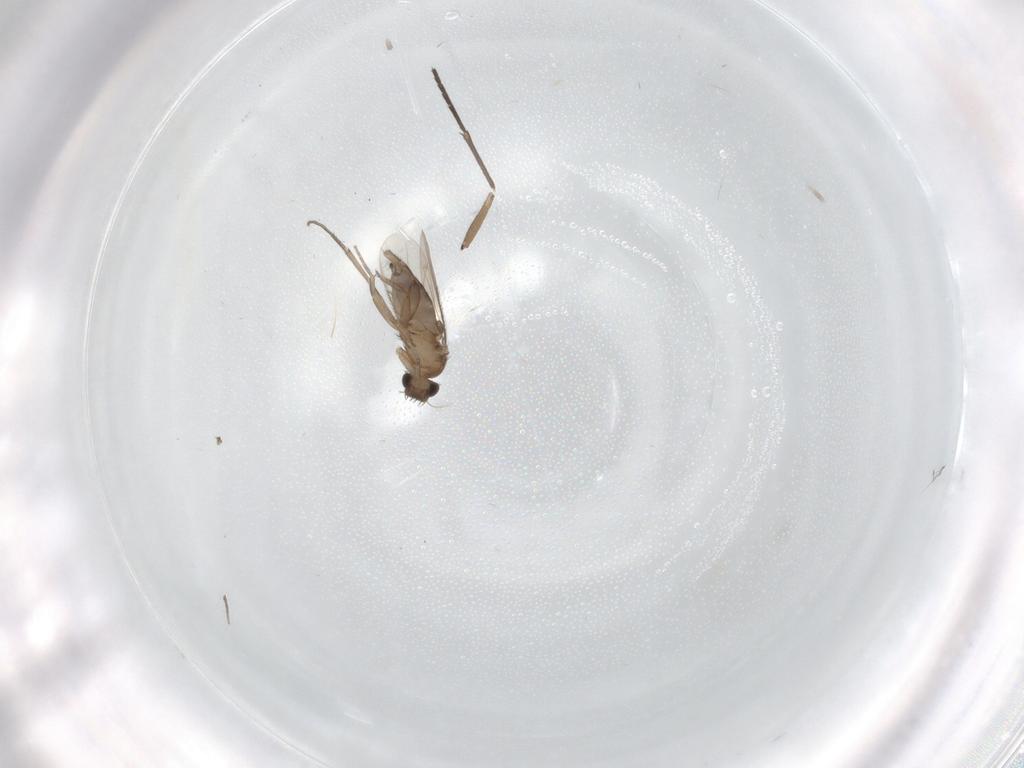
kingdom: Animalia
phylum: Arthropoda
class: Insecta
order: Diptera
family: Phoridae
